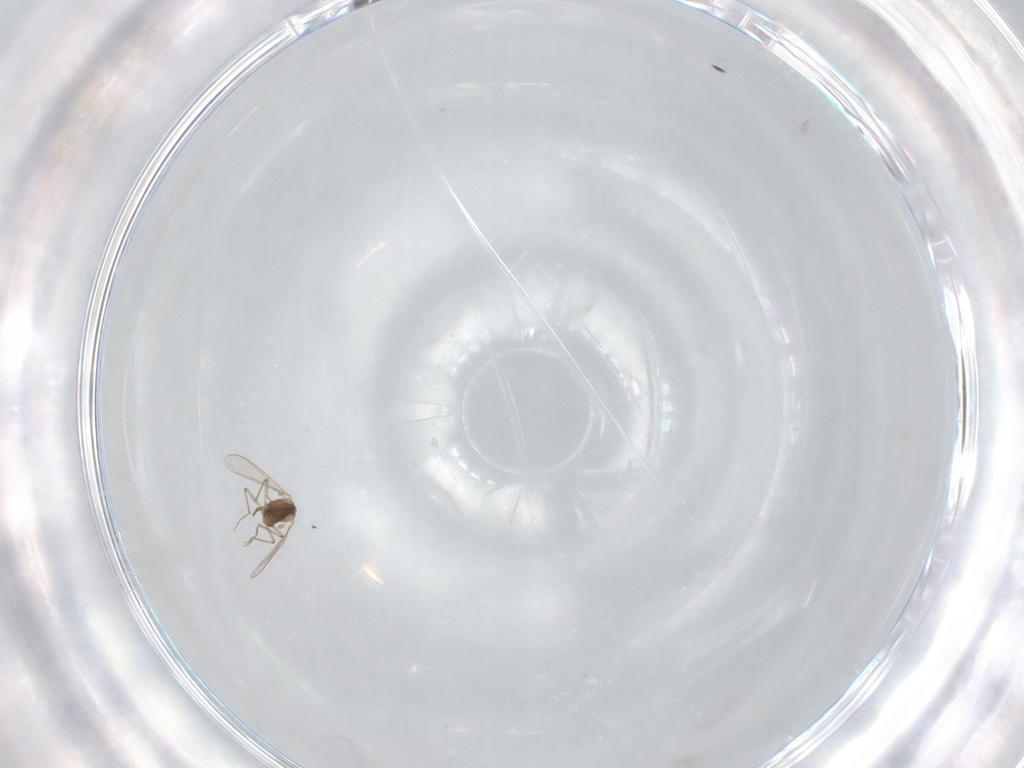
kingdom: Animalia
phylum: Arthropoda
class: Insecta
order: Diptera
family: Chironomidae
